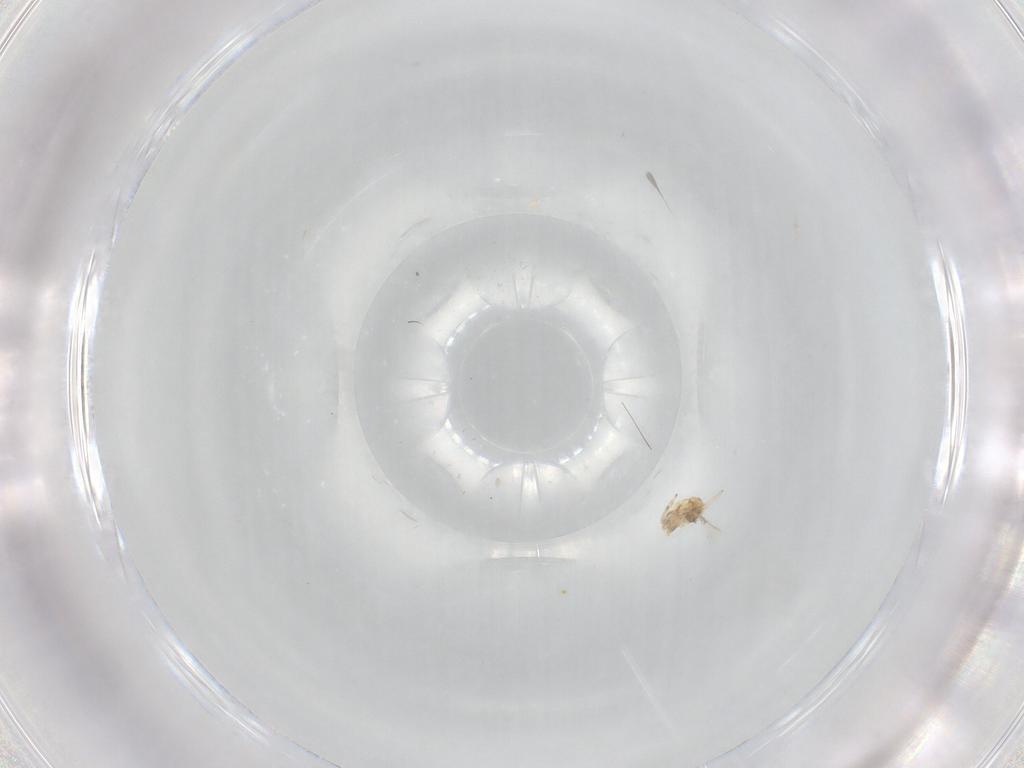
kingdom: Animalia
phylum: Arthropoda
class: Insecta
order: Diptera
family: Chironomidae
